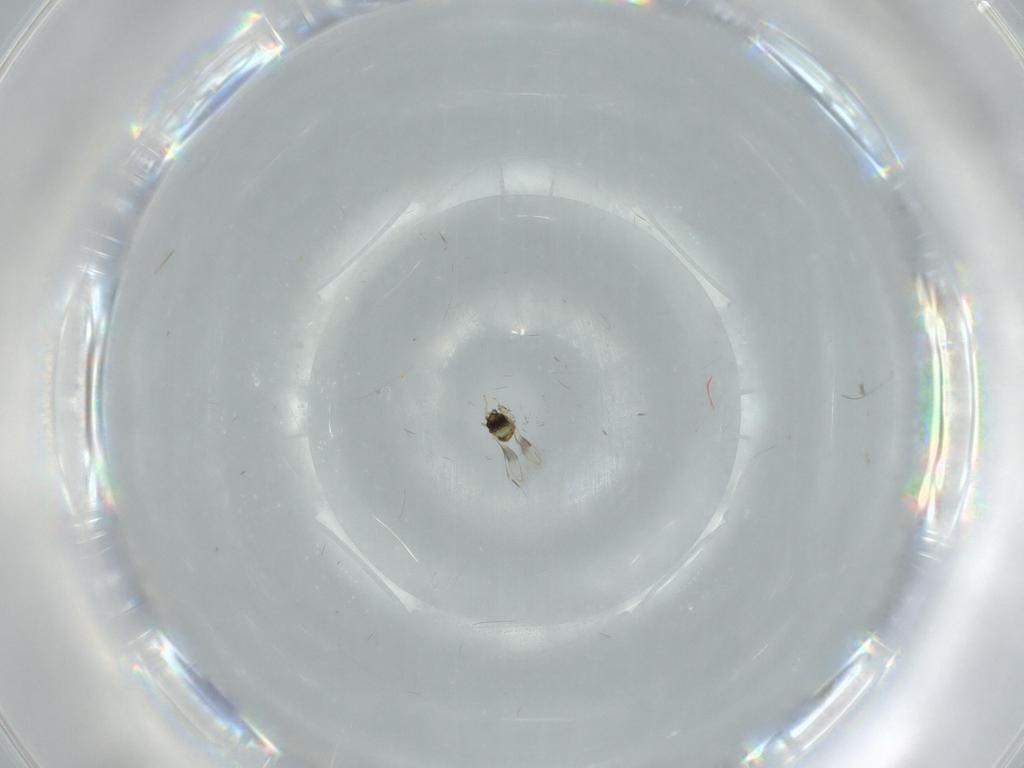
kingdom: Animalia
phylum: Arthropoda
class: Insecta
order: Hymenoptera
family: Aphelinidae
